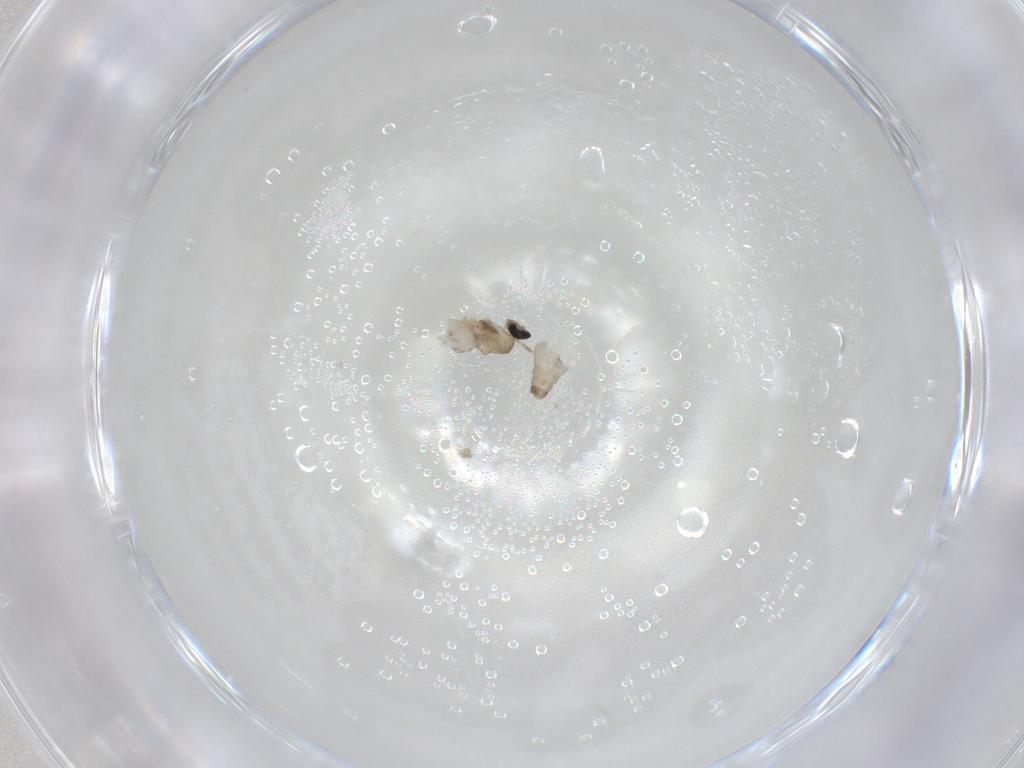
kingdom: Animalia
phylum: Arthropoda
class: Insecta
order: Diptera
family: Cecidomyiidae
